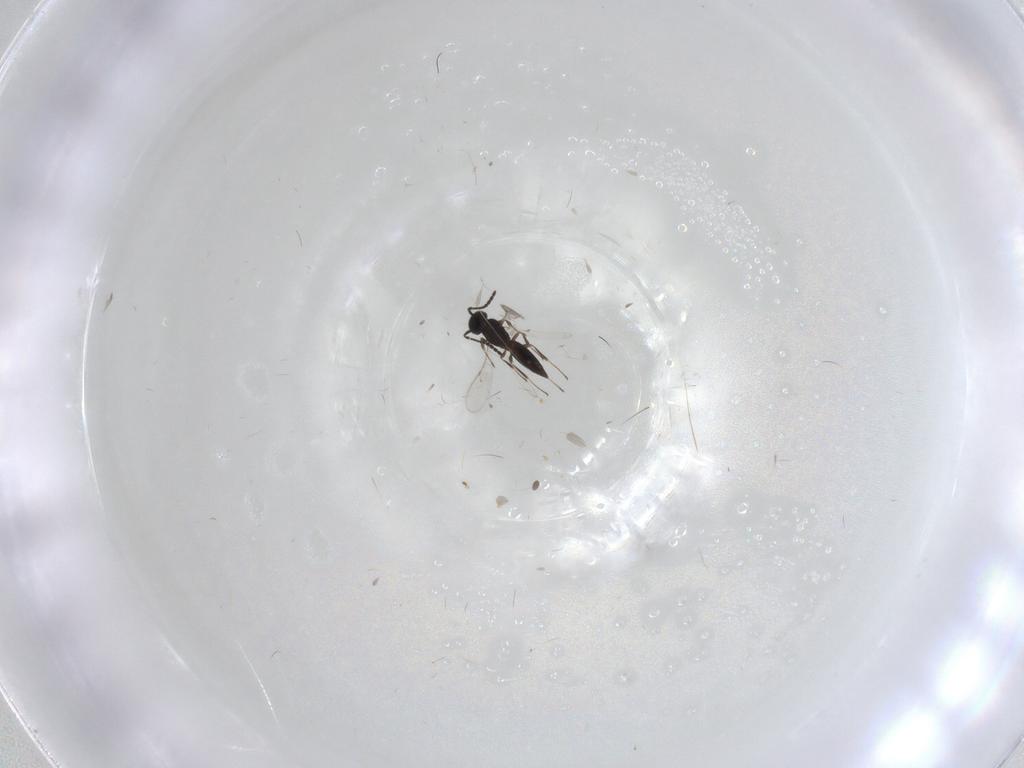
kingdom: Animalia
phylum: Arthropoda
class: Insecta
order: Hymenoptera
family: Scelionidae
